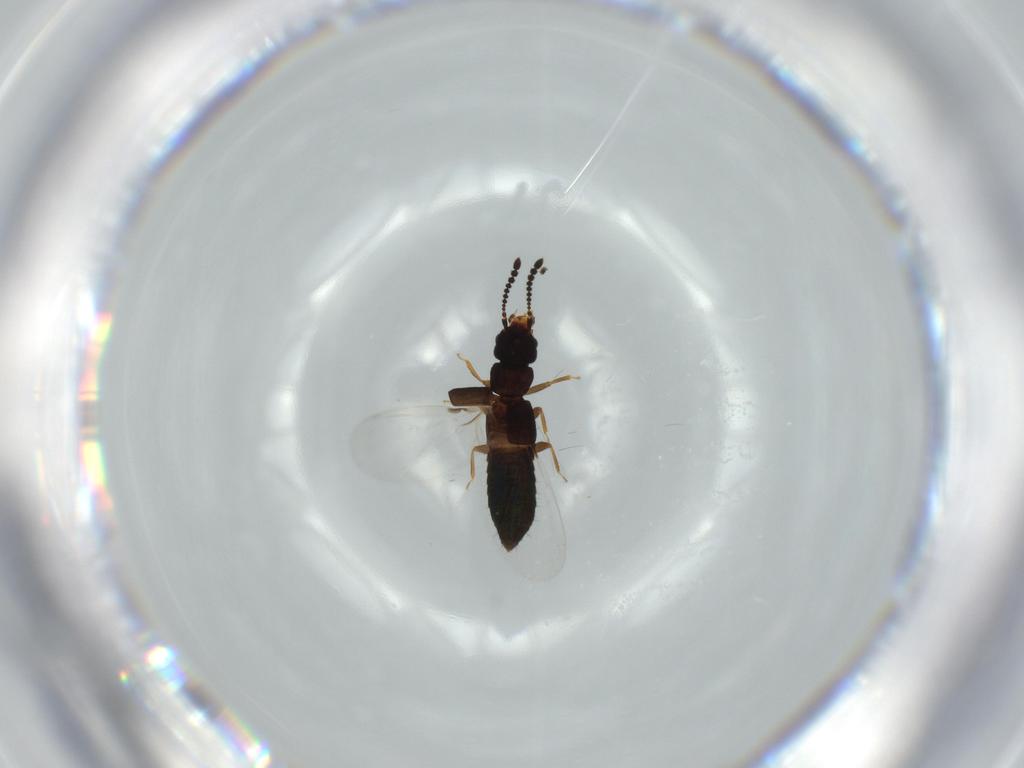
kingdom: Animalia
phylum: Arthropoda
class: Insecta
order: Coleoptera
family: Staphylinidae
